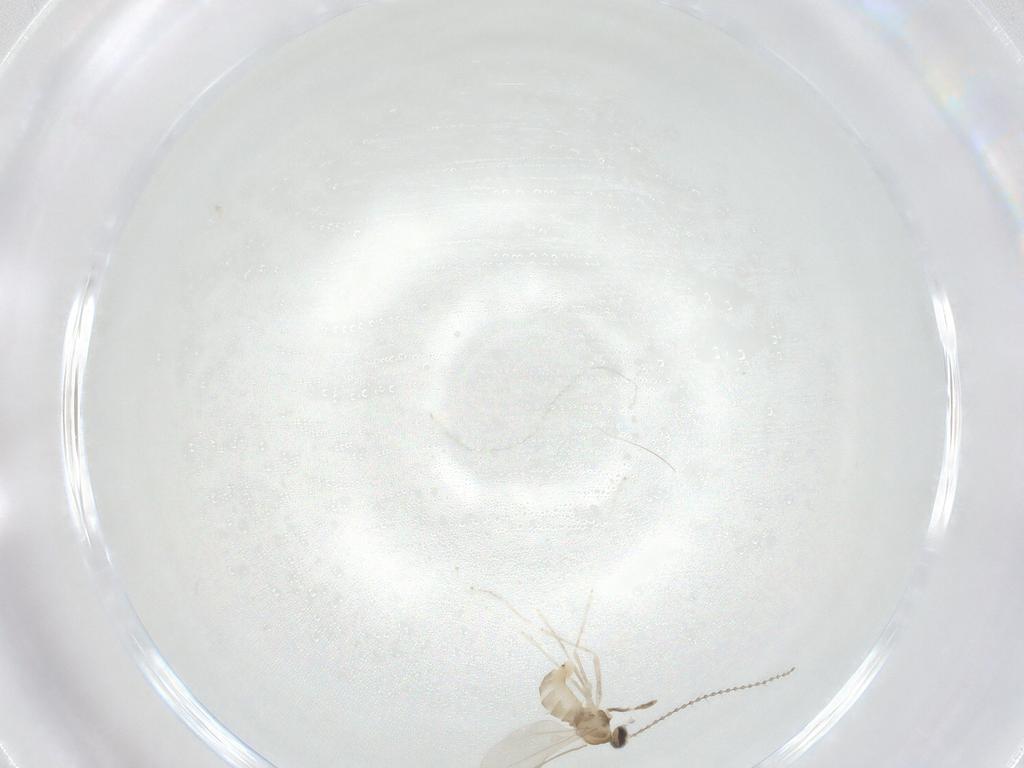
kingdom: Animalia
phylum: Arthropoda
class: Insecta
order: Diptera
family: Cecidomyiidae
